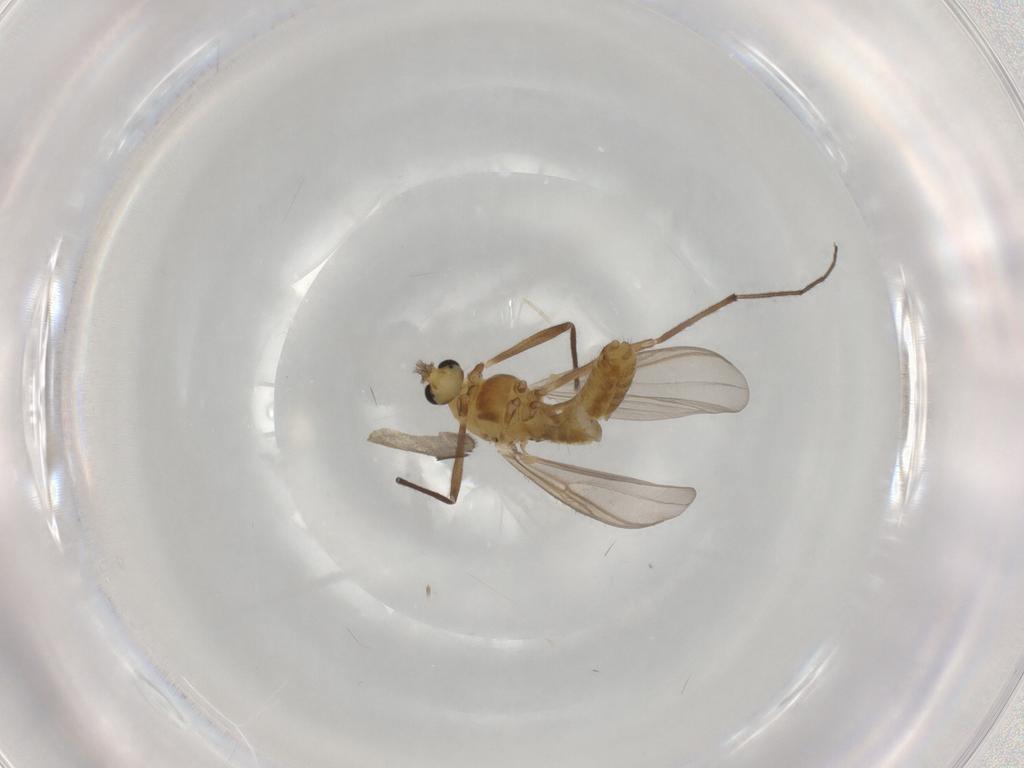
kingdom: Animalia
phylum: Arthropoda
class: Insecta
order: Diptera
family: Chironomidae
